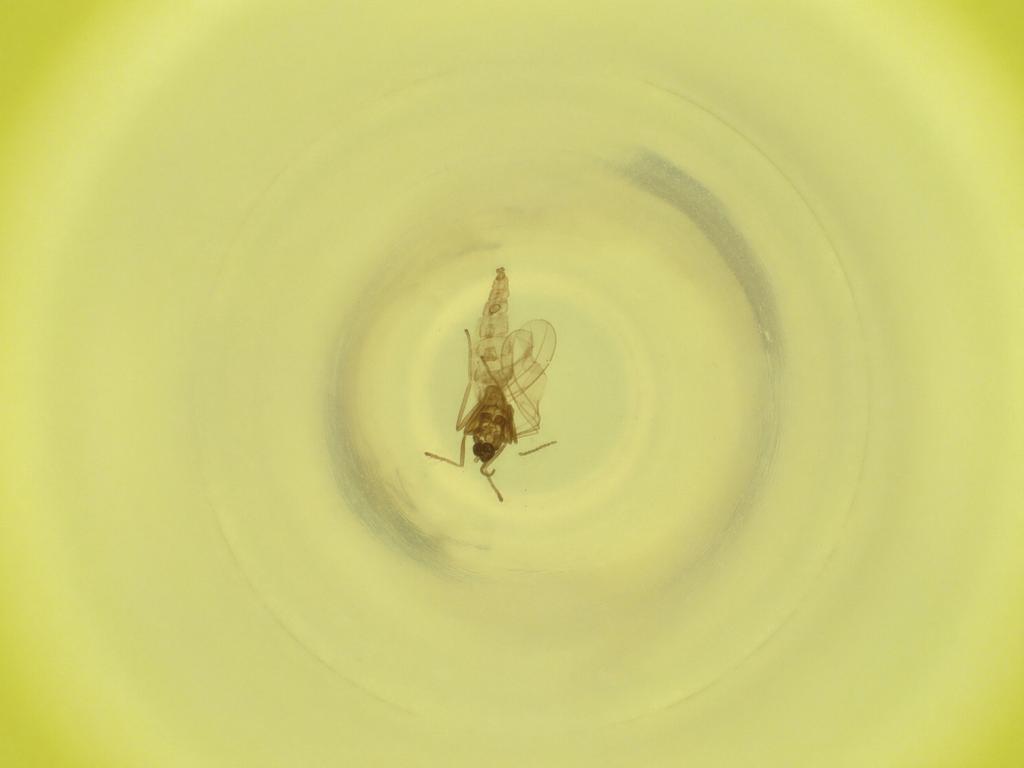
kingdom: Animalia
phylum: Arthropoda
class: Insecta
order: Diptera
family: Cecidomyiidae
